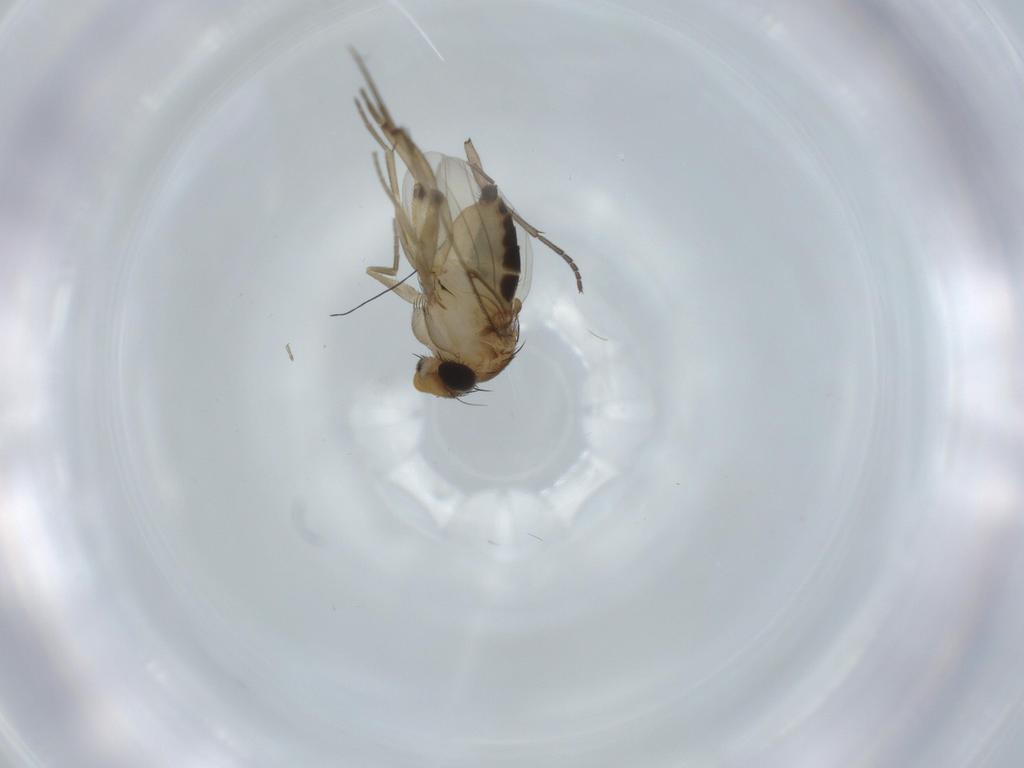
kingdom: Animalia
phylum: Arthropoda
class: Insecta
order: Diptera
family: Sciaridae
